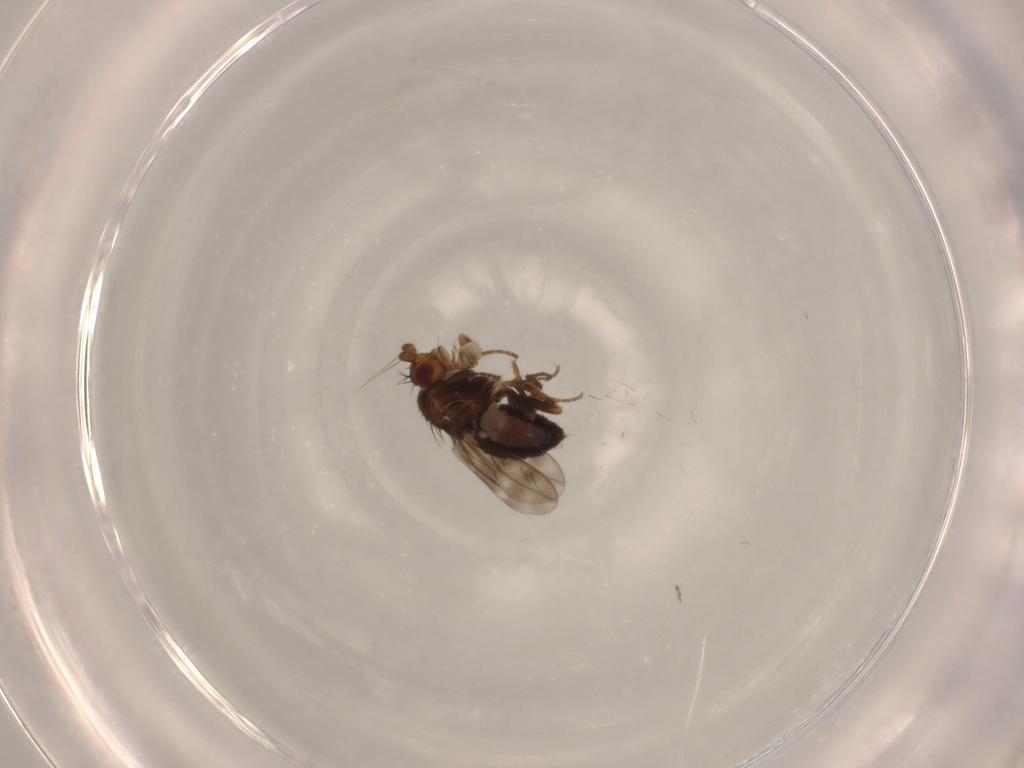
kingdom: Animalia
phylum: Arthropoda
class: Insecta
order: Diptera
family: Sphaeroceridae
